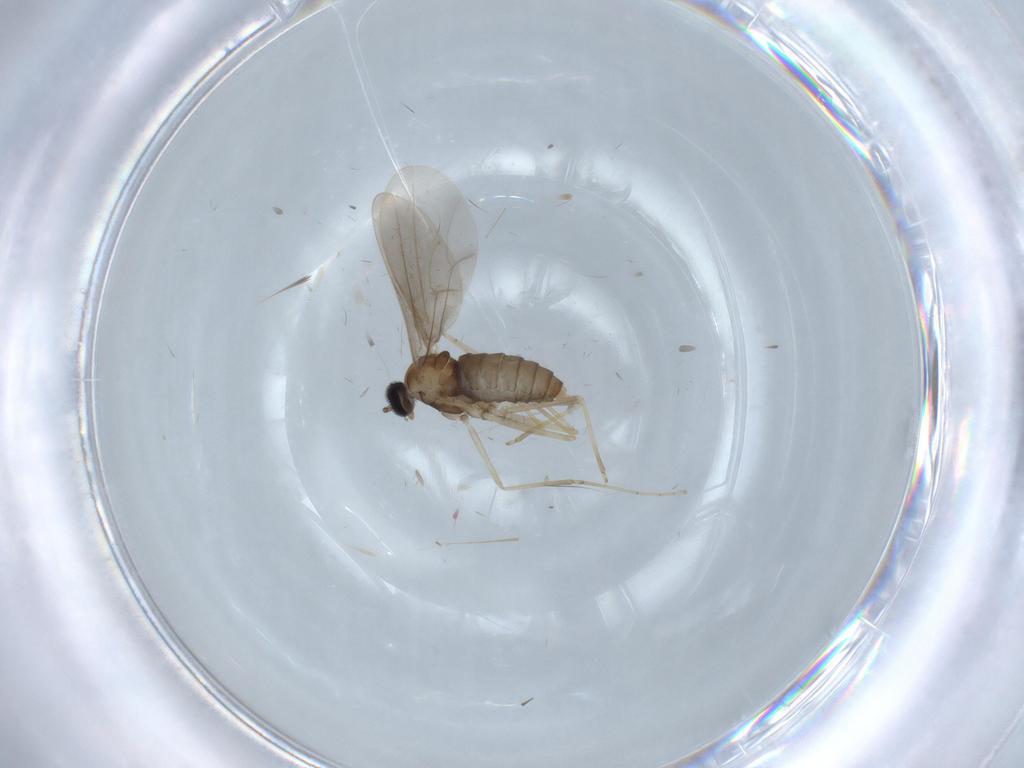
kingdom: Animalia
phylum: Arthropoda
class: Insecta
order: Diptera
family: Cecidomyiidae
